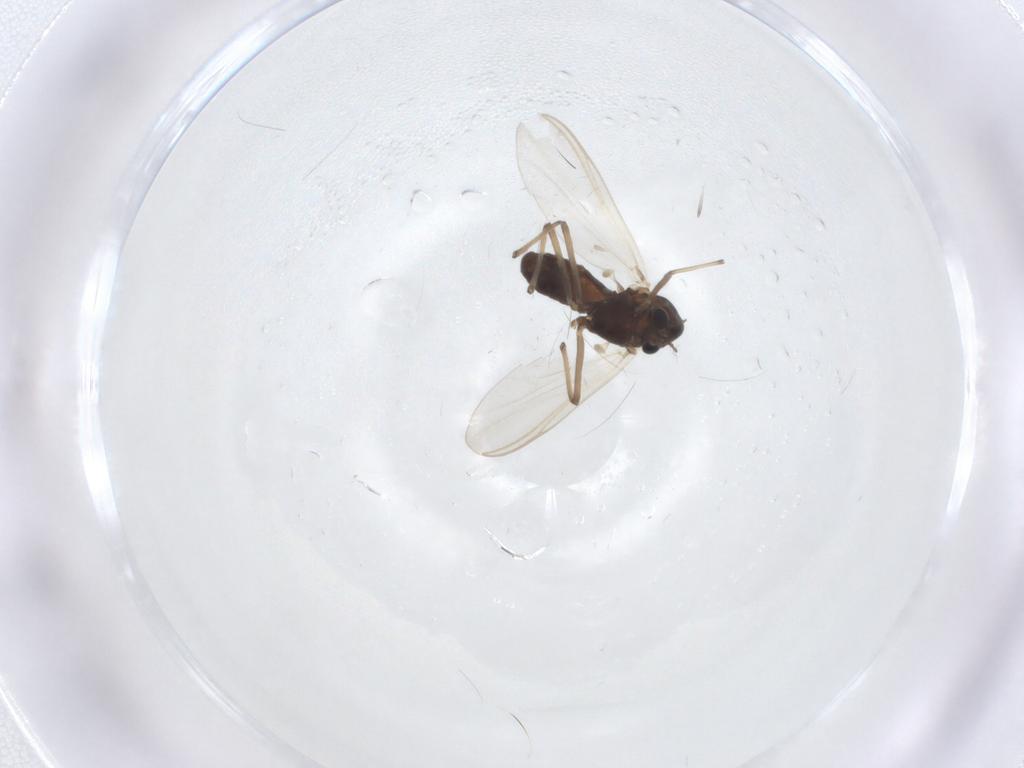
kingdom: Animalia
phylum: Arthropoda
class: Insecta
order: Diptera
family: Chironomidae
